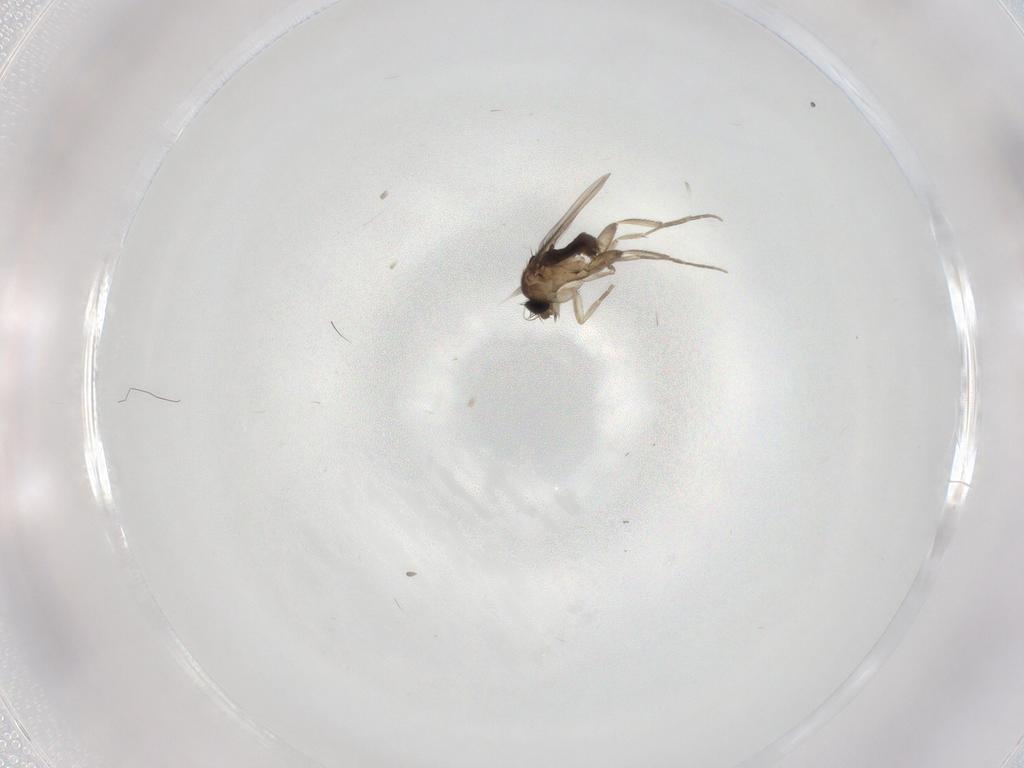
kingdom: Animalia
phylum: Arthropoda
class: Insecta
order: Diptera
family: Phoridae
